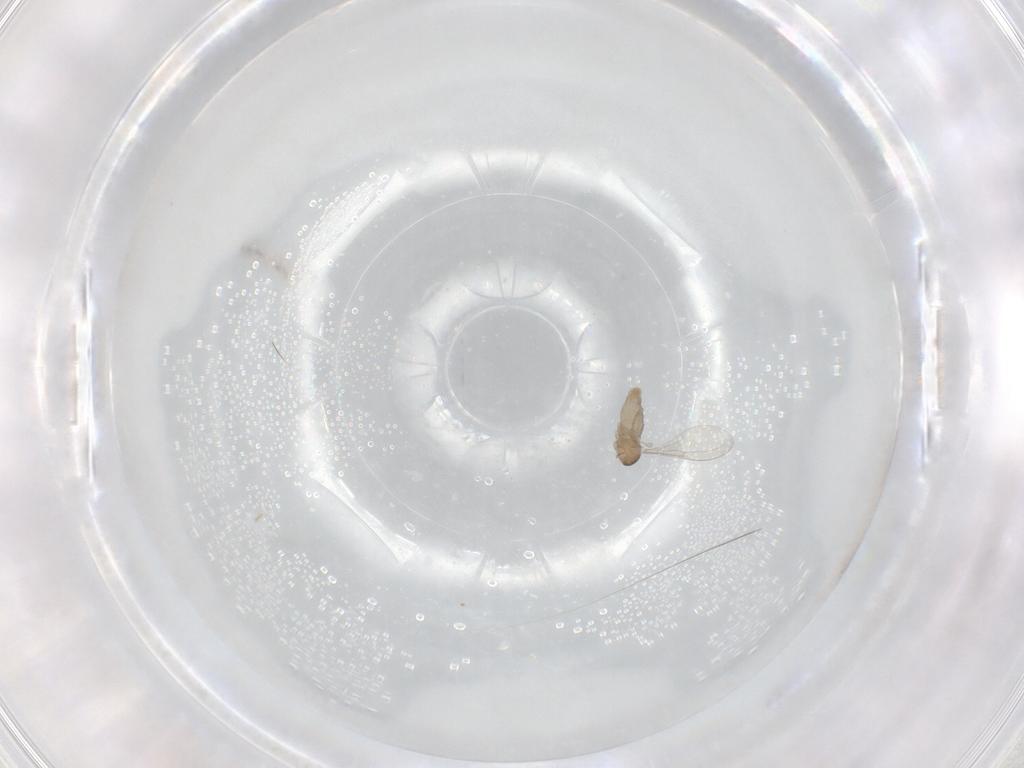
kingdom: Animalia
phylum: Arthropoda
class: Insecta
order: Diptera
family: Cecidomyiidae
